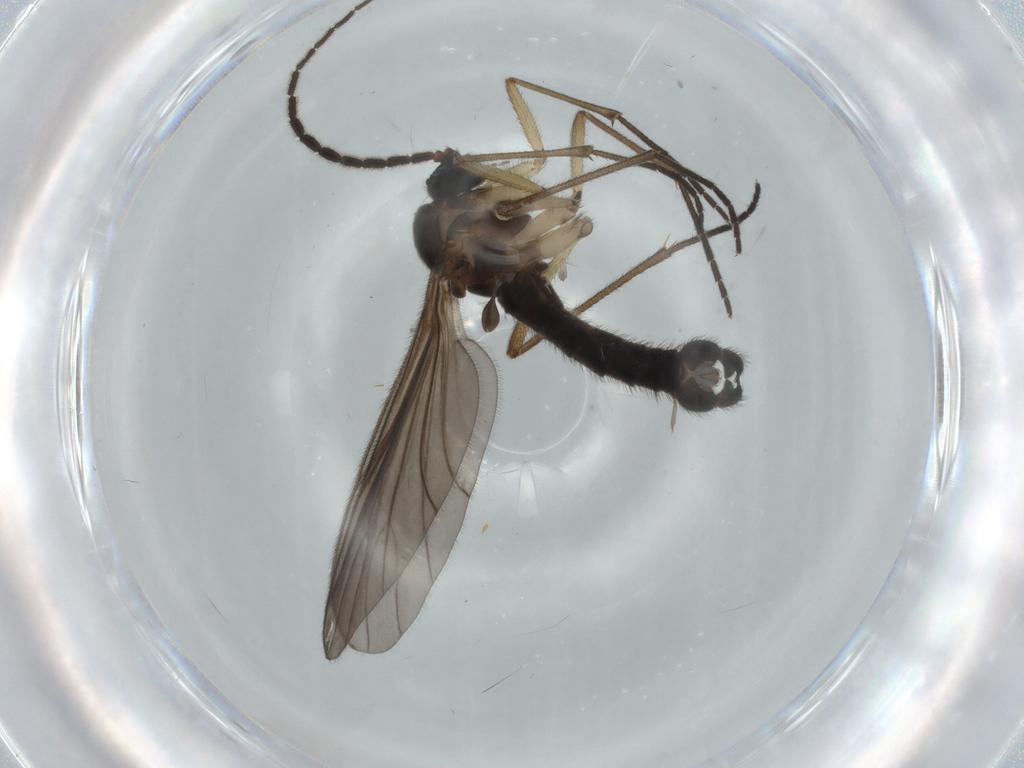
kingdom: Animalia
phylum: Arthropoda
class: Insecta
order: Diptera
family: Sciaridae
